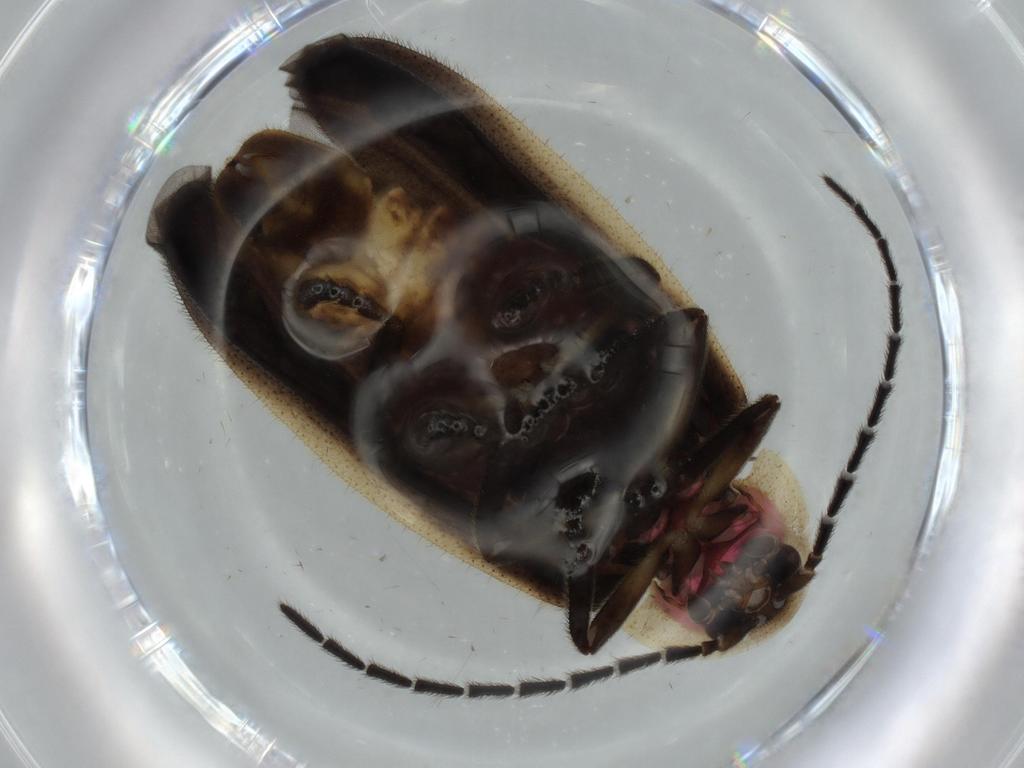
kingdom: Animalia
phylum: Arthropoda
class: Insecta
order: Coleoptera
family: Lampyridae
